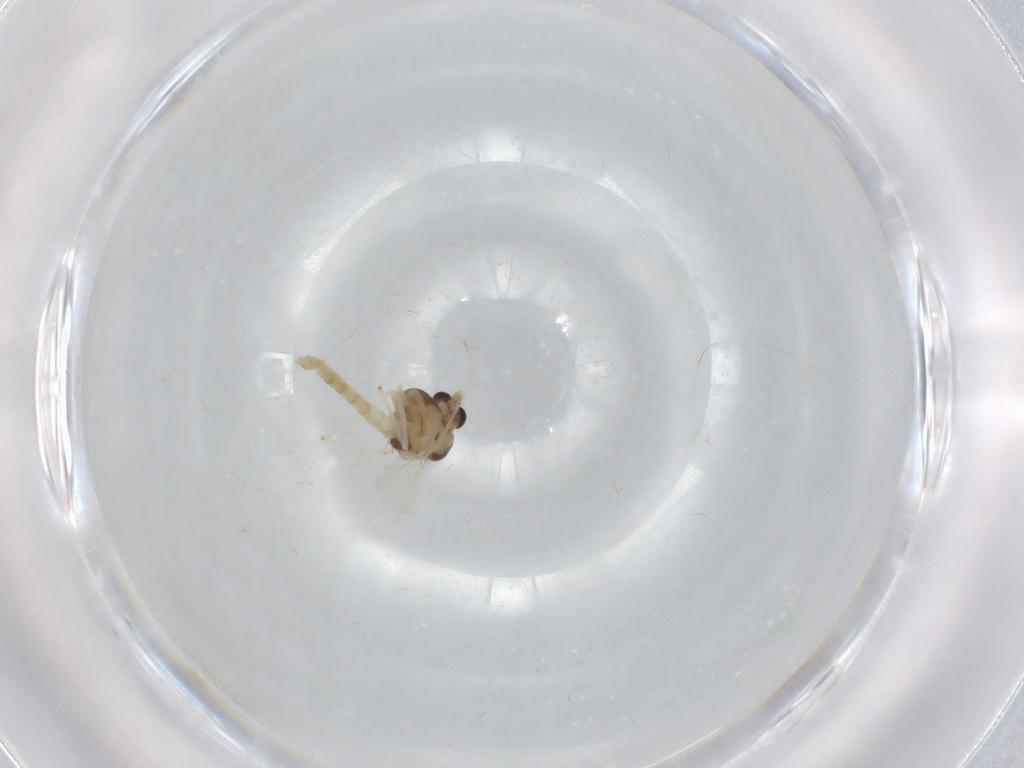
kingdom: Animalia
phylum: Arthropoda
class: Insecta
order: Diptera
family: Chironomidae
